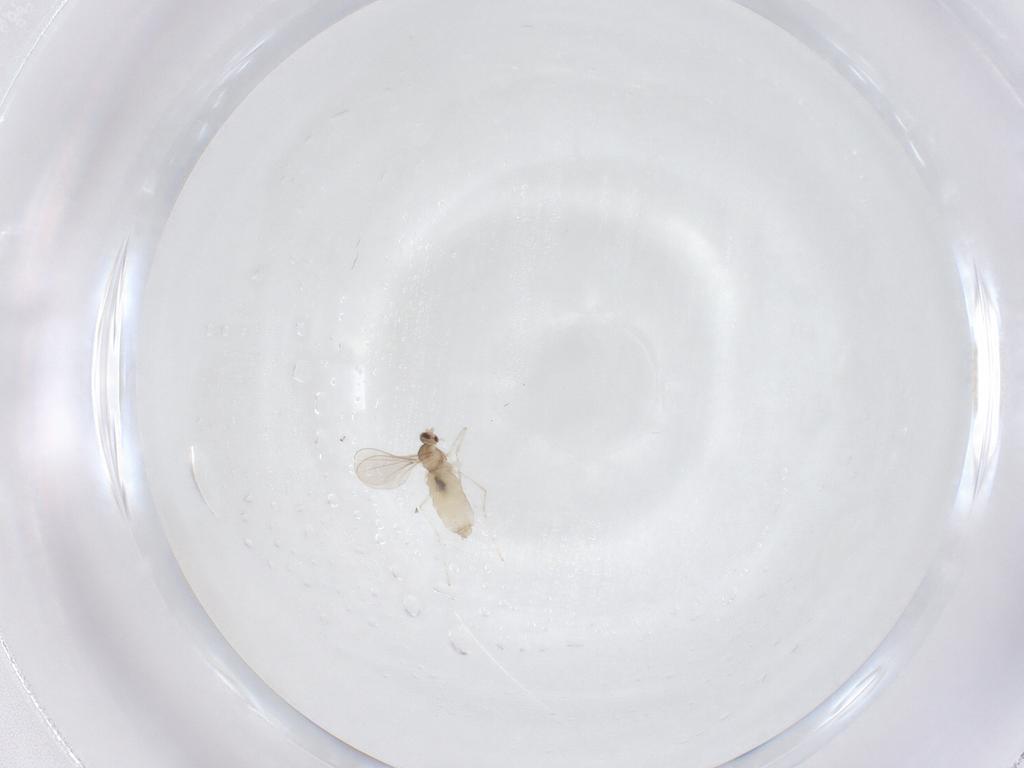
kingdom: Animalia
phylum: Arthropoda
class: Insecta
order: Diptera
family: Cecidomyiidae
